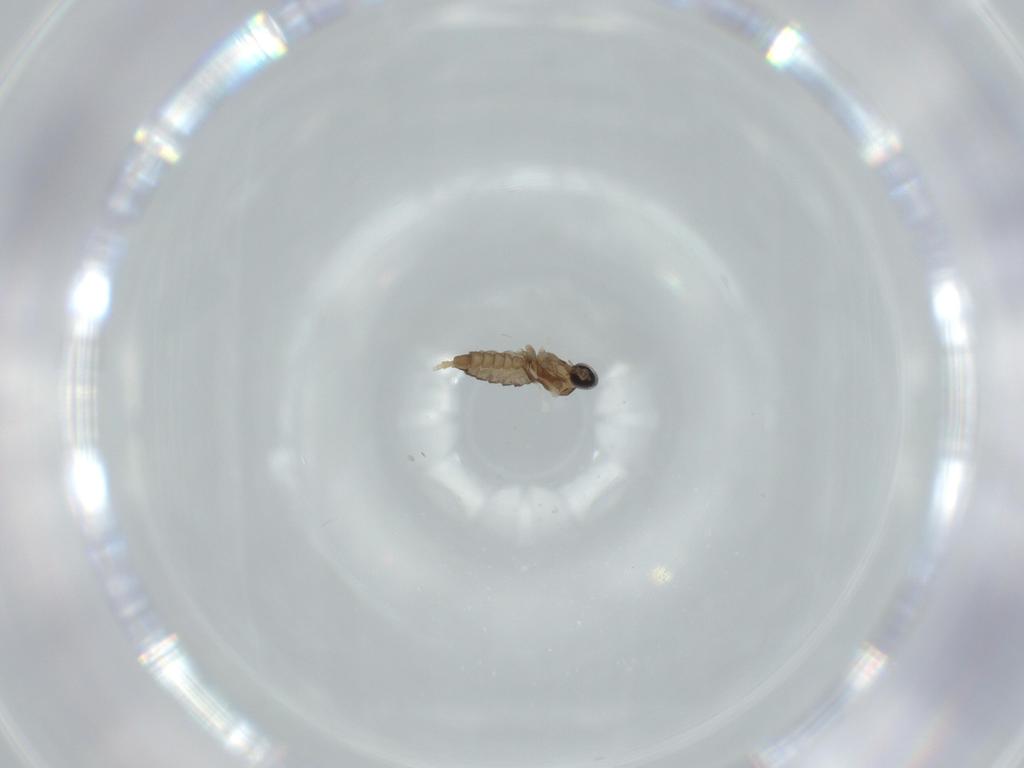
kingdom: Animalia
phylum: Arthropoda
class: Insecta
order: Diptera
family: Cecidomyiidae
